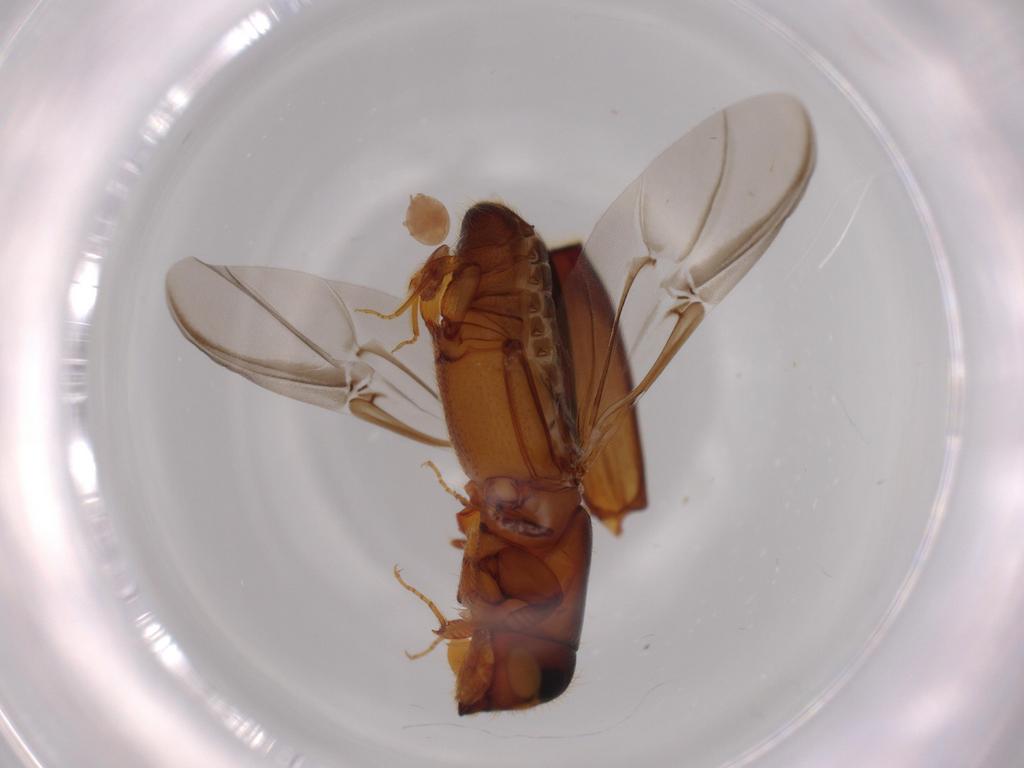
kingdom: Animalia
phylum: Arthropoda
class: Insecta
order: Coleoptera
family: Curculionidae
